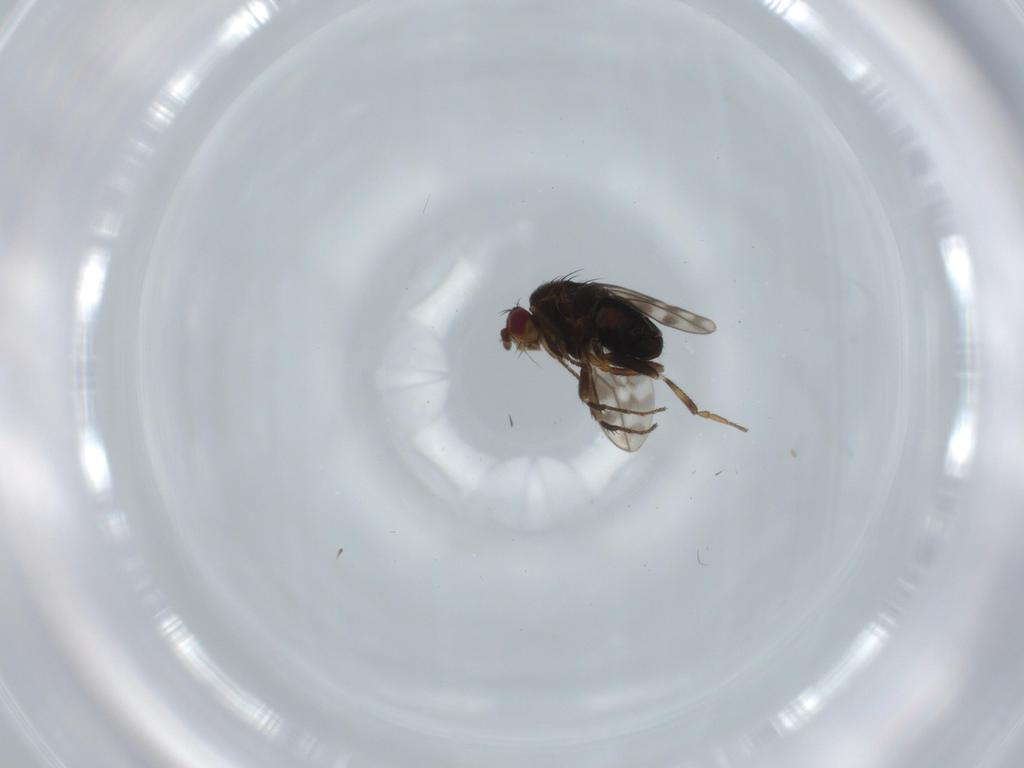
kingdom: Animalia
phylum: Arthropoda
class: Insecta
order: Diptera
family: Sphaeroceridae
